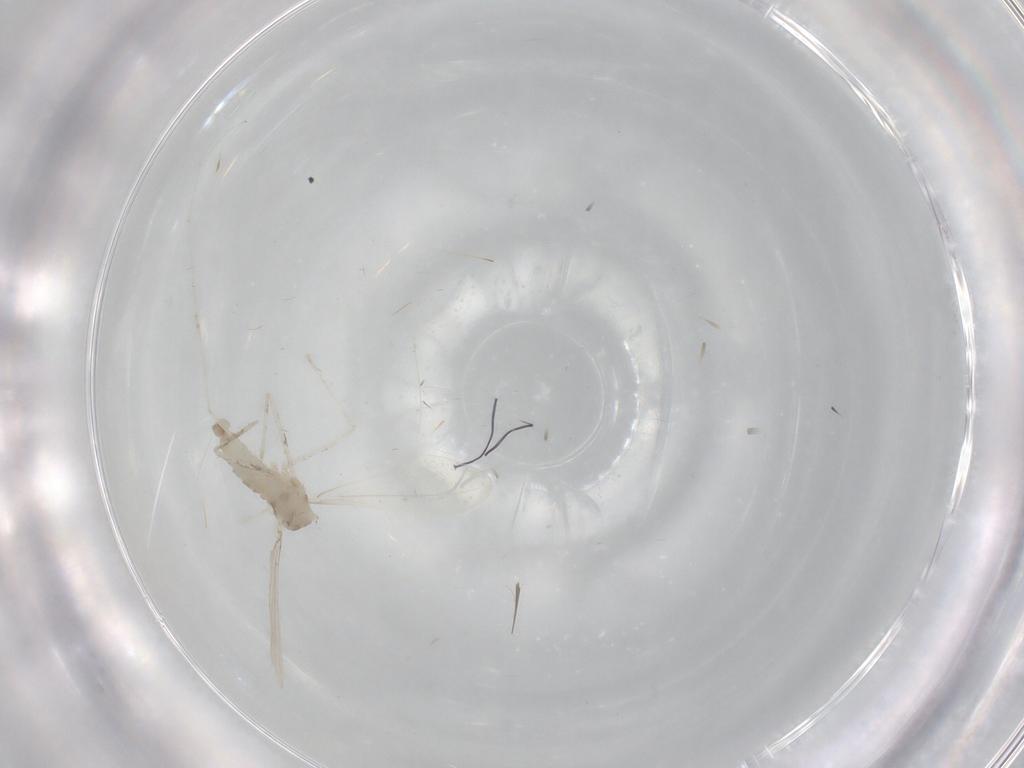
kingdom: Animalia
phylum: Arthropoda
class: Insecta
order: Diptera
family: Cecidomyiidae
